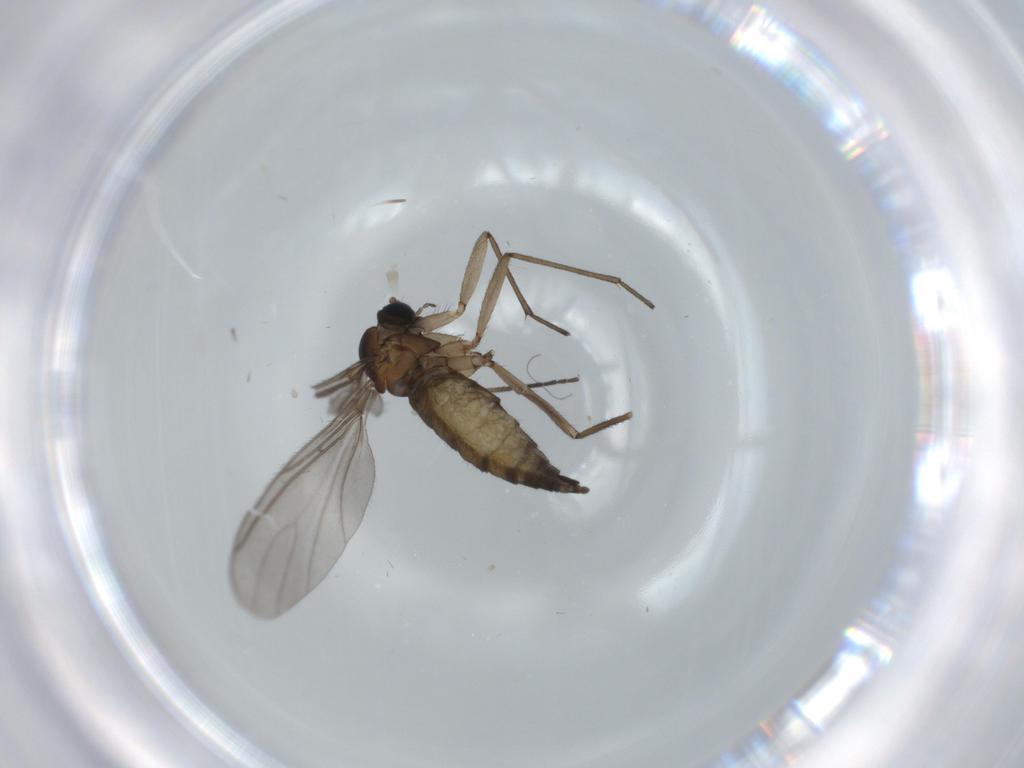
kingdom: Animalia
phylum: Arthropoda
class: Insecta
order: Diptera
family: Sciaridae
